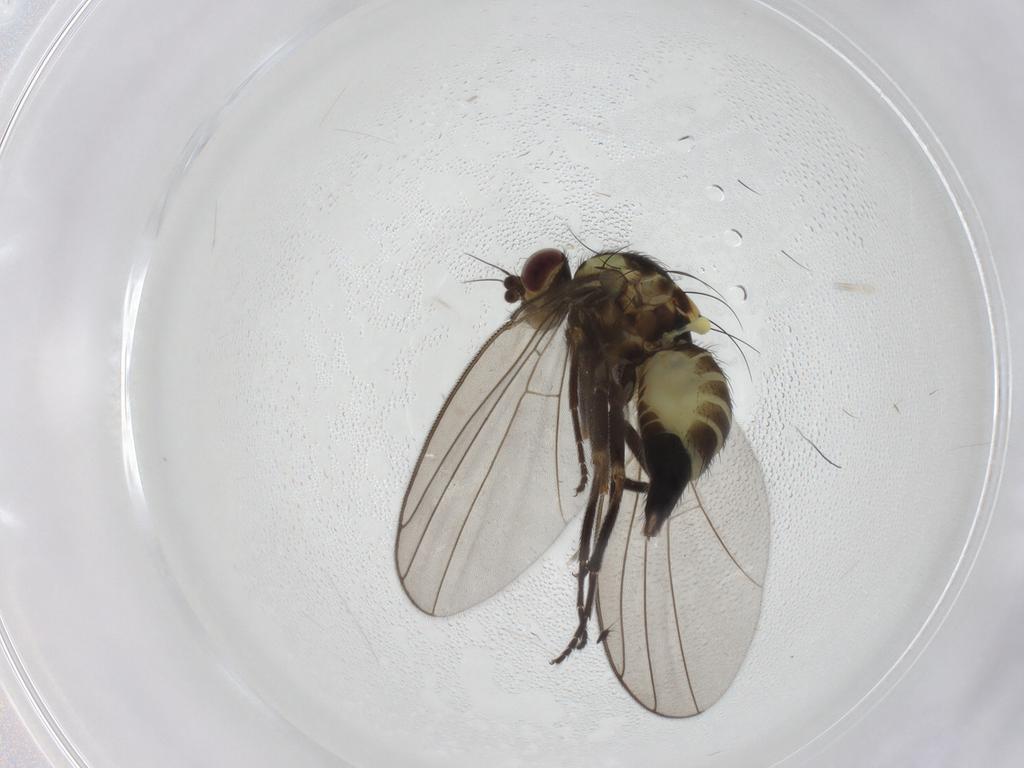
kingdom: Animalia
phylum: Arthropoda
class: Insecta
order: Diptera
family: Agromyzidae
